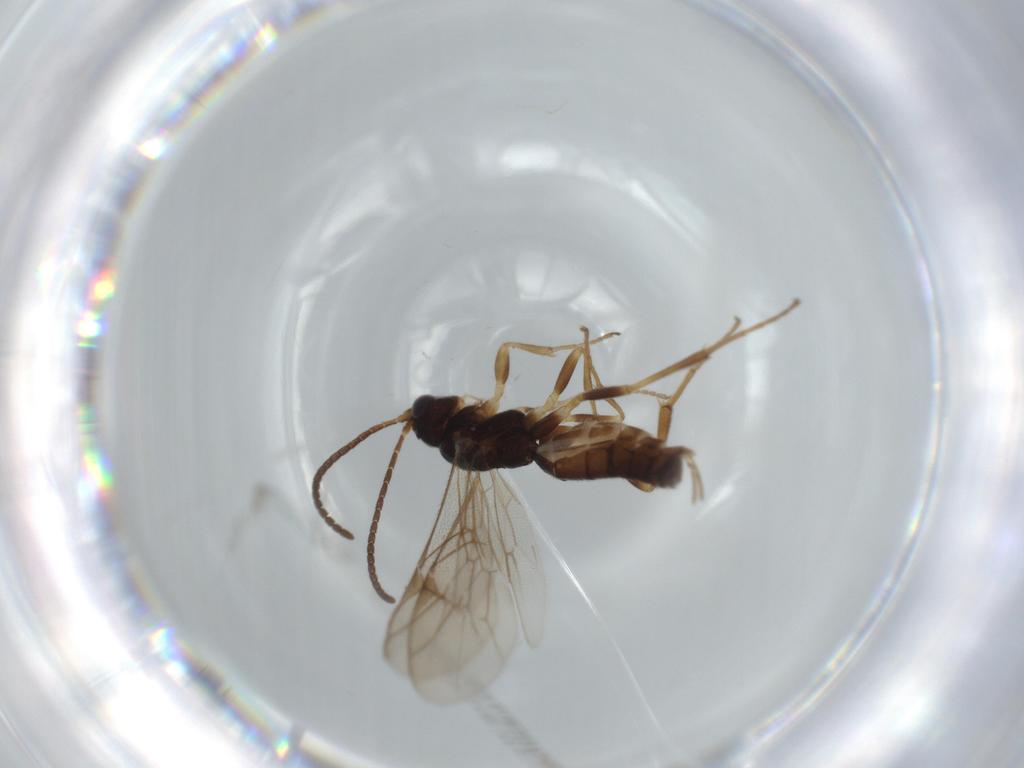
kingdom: Animalia
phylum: Arthropoda
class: Insecta
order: Hymenoptera
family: Ichneumonidae
